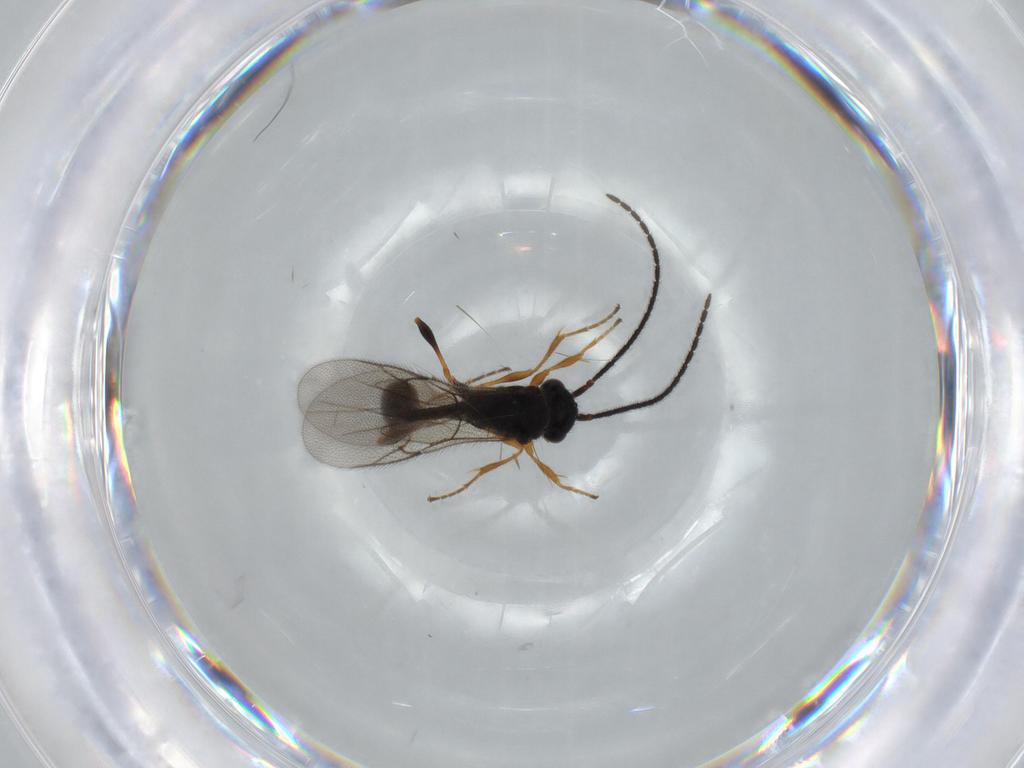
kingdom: Animalia
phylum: Arthropoda
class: Insecta
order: Hymenoptera
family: Diapriidae
